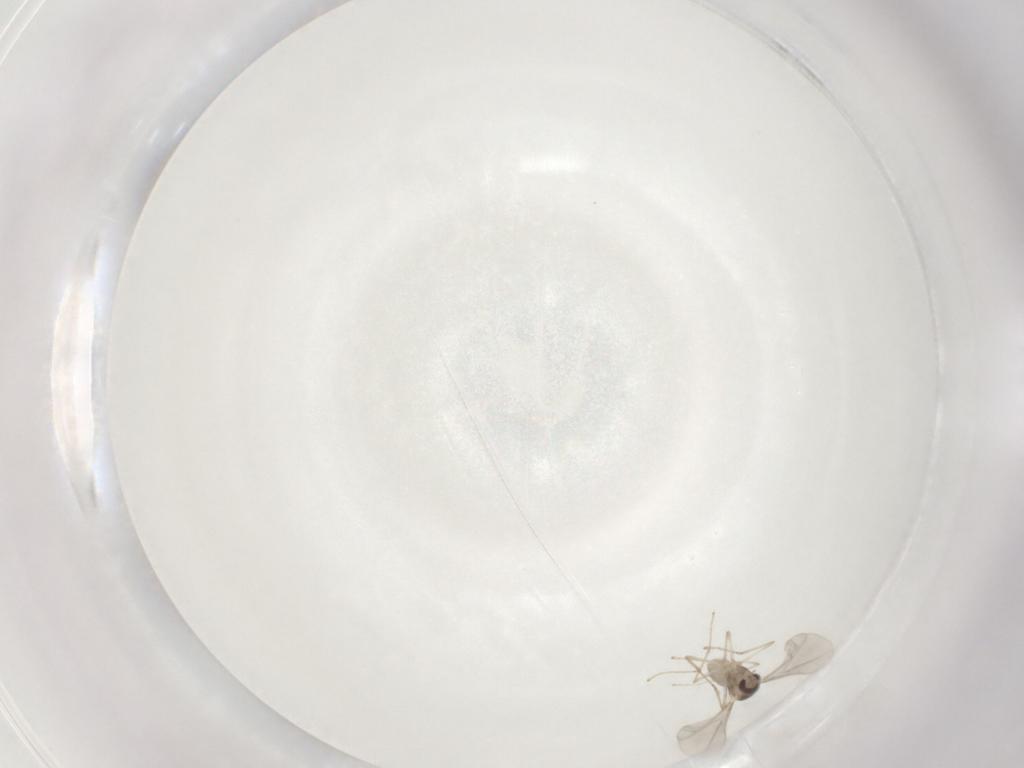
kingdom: Animalia
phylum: Arthropoda
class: Insecta
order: Diptera
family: Cecidomyiidae
